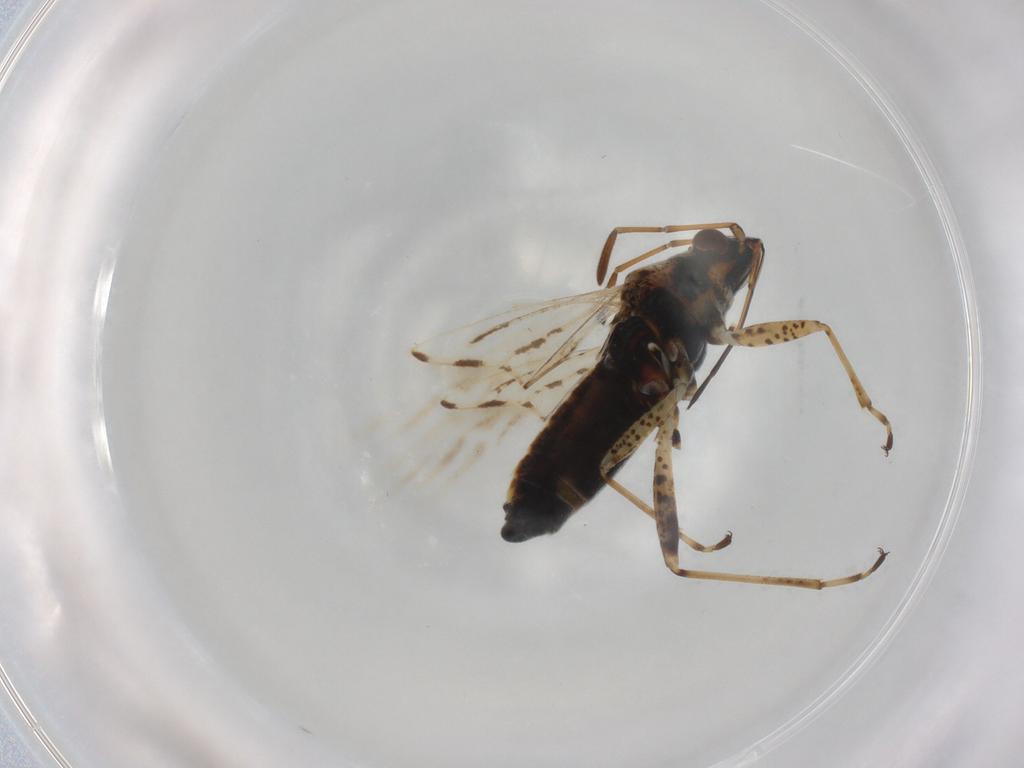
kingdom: Animalia
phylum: Arthropoda
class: Insecta
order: Hemiptera
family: Lygaeidae
